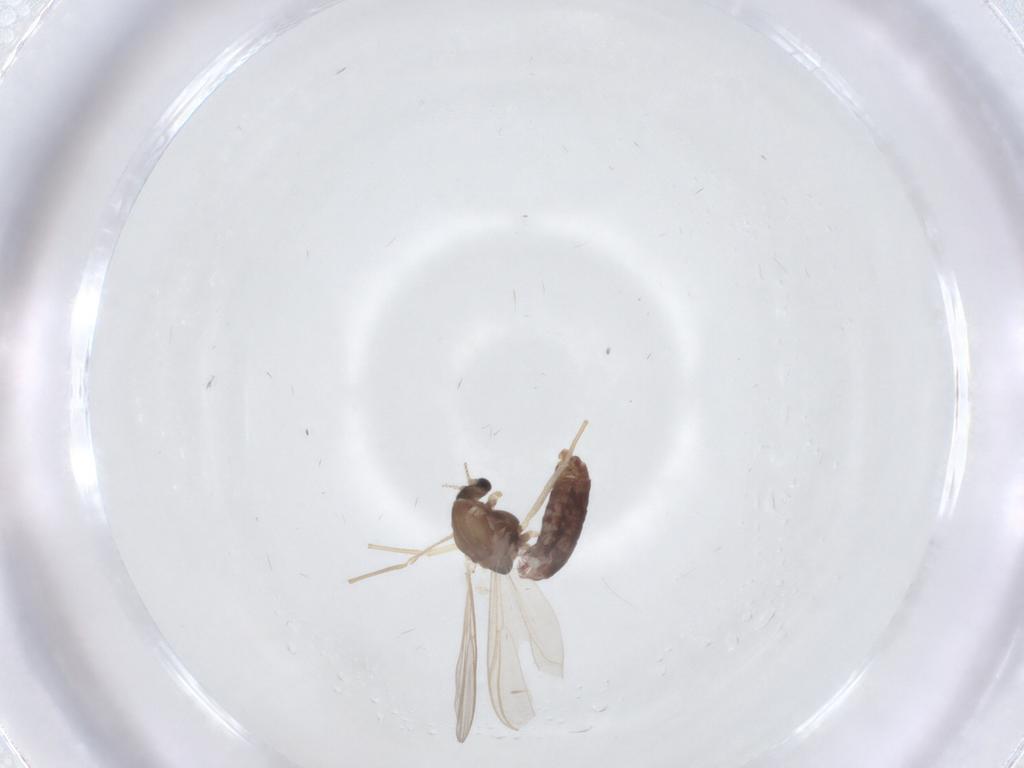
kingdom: Animalia
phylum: Arthropoda
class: Insecta
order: Diptera
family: Chironomidae
